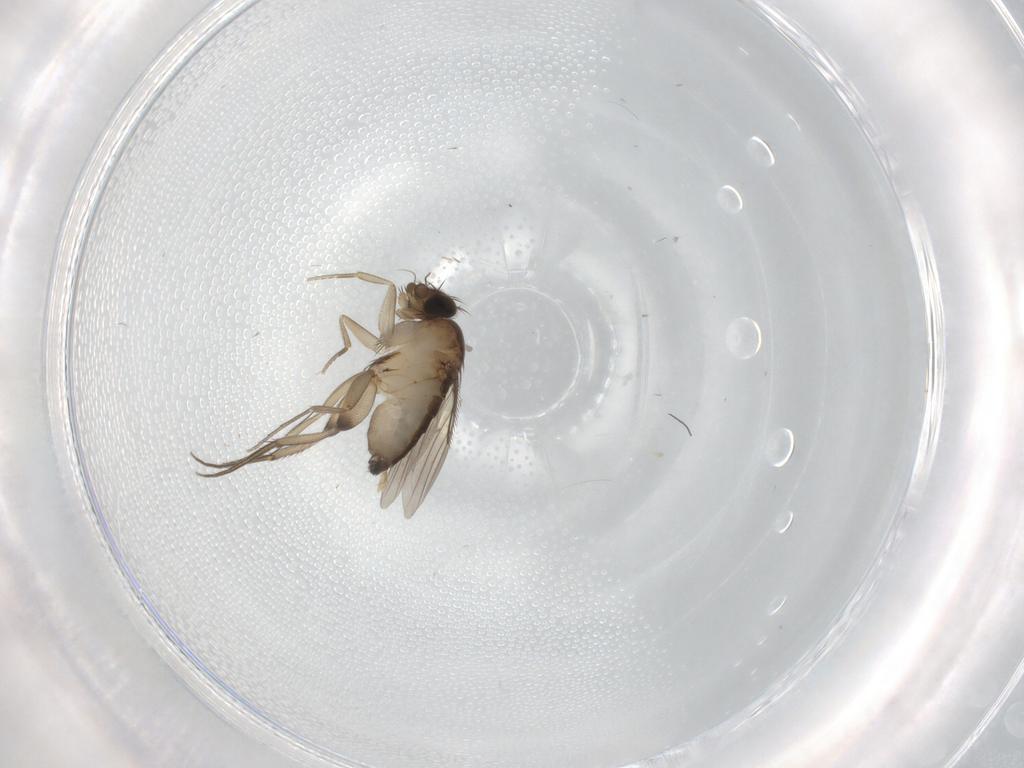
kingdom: Animalia
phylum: Arthropoda
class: Insecta
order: Diptera
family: Phoridae
